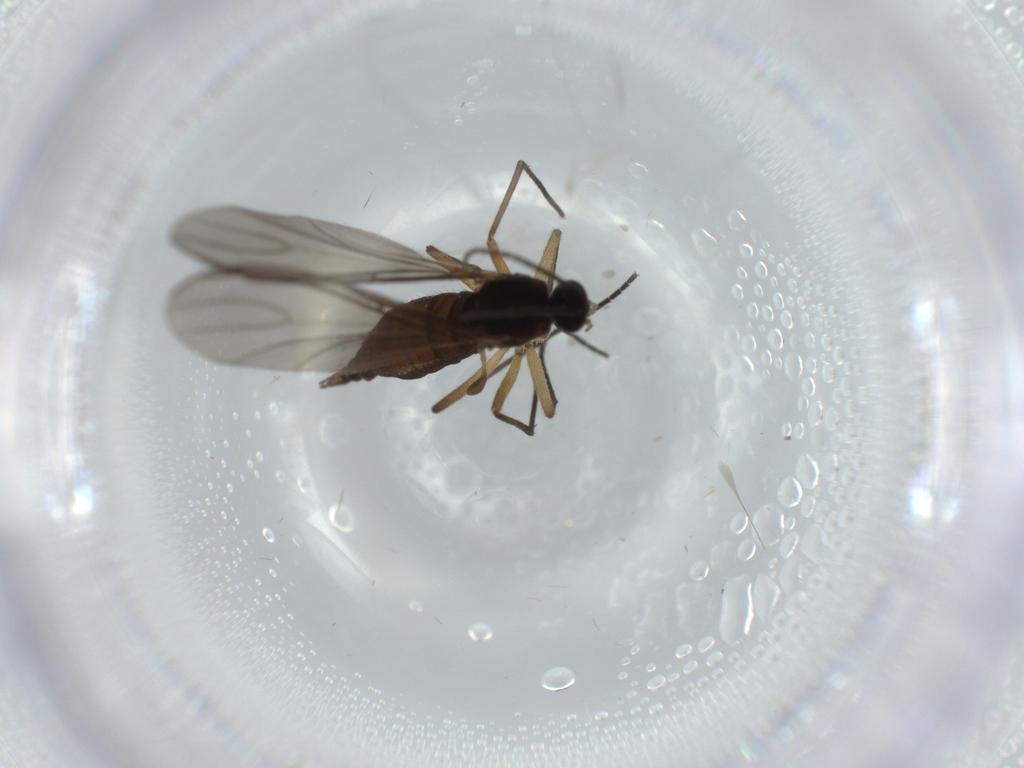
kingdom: Animalia
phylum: Arthropoda
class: Insecta
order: Diptera
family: Sciaridae
